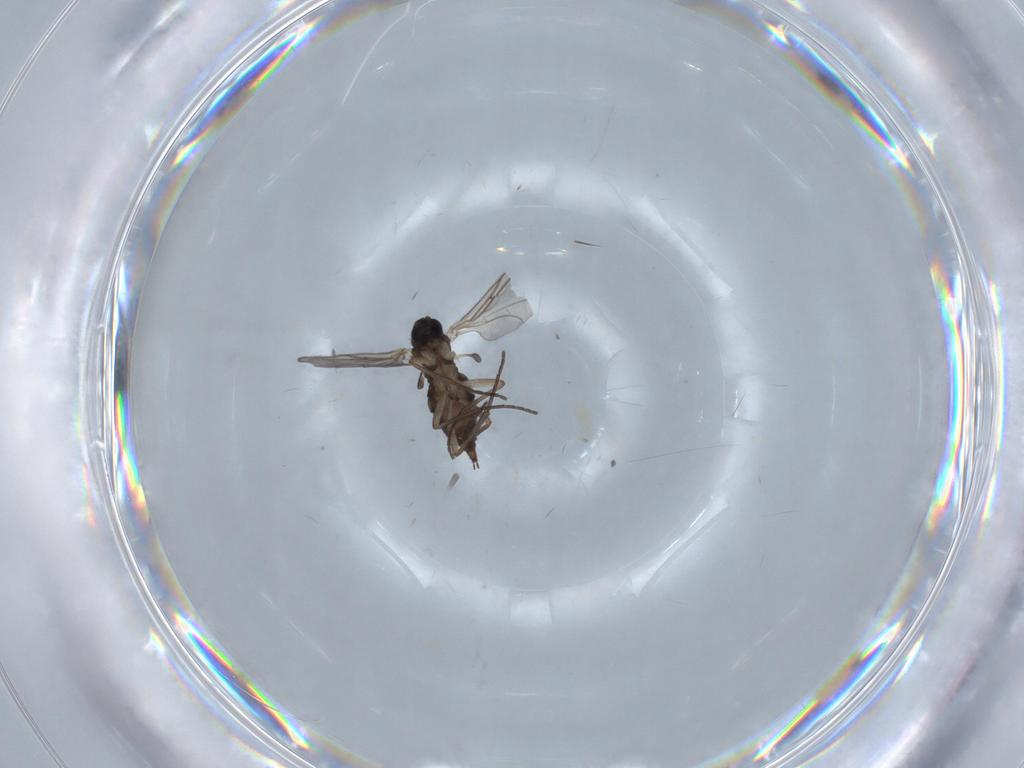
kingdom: Animalia
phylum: Arthropoda
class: Insecta
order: Diptera
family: Sciaridae
